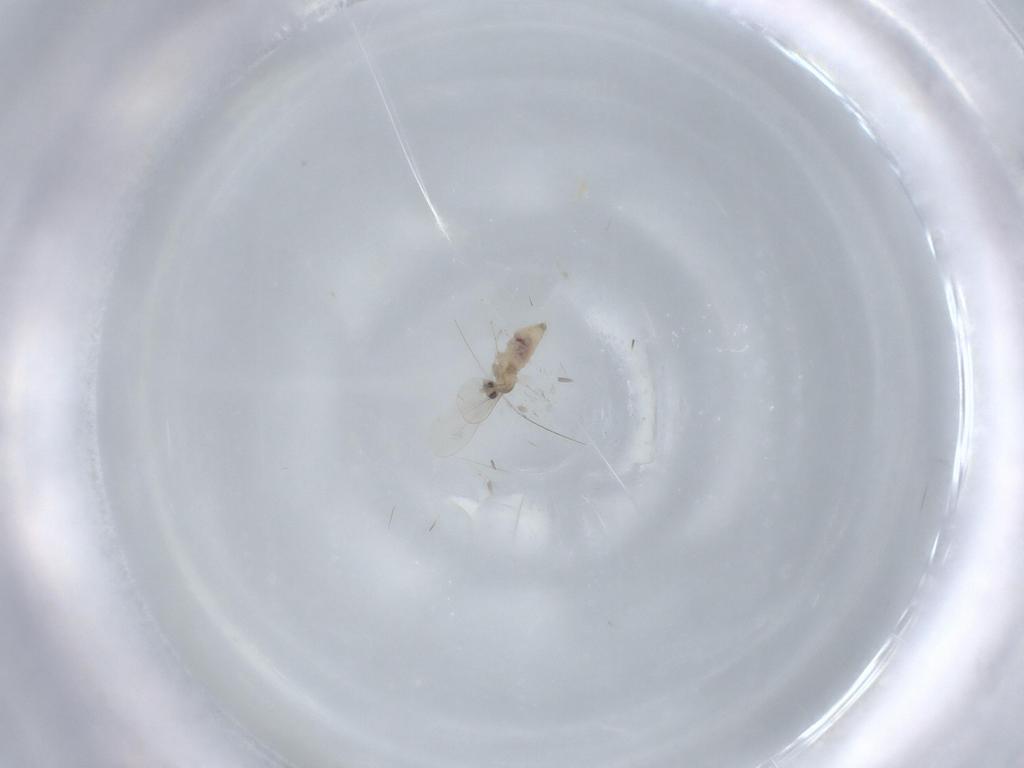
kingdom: Animalia
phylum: Arthropoda
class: Insecta
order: Diptera
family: Cecidomyiidae
